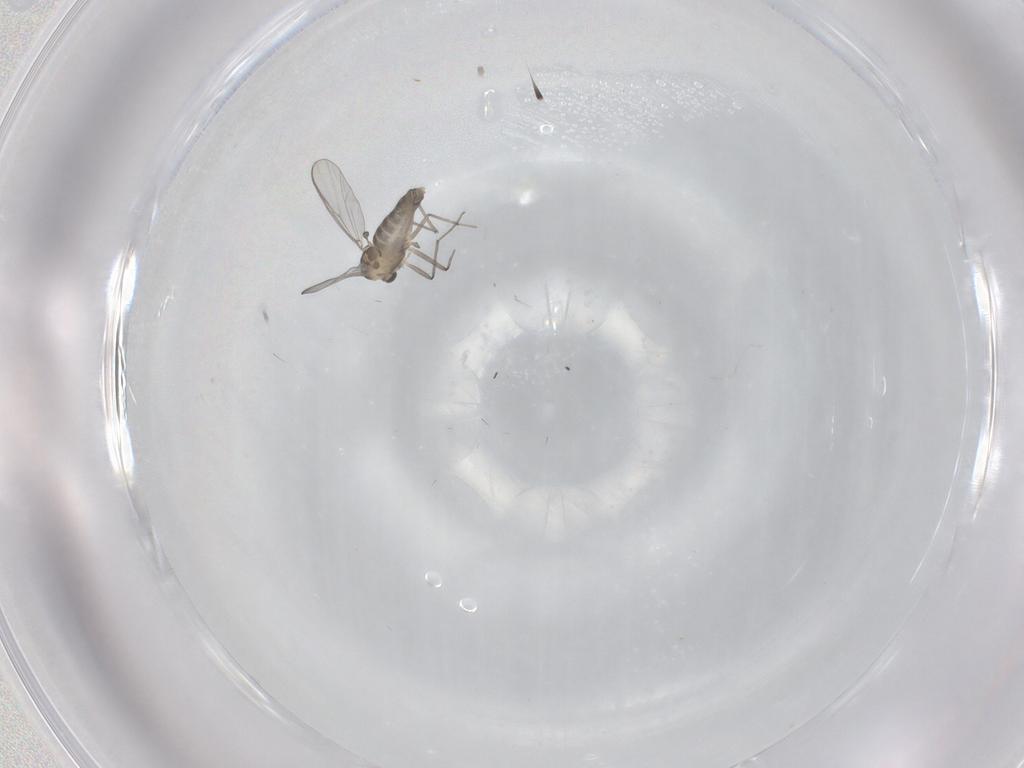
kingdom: Animalia
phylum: Arthropoda
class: Insecta
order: Diptera
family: Chironomidae
